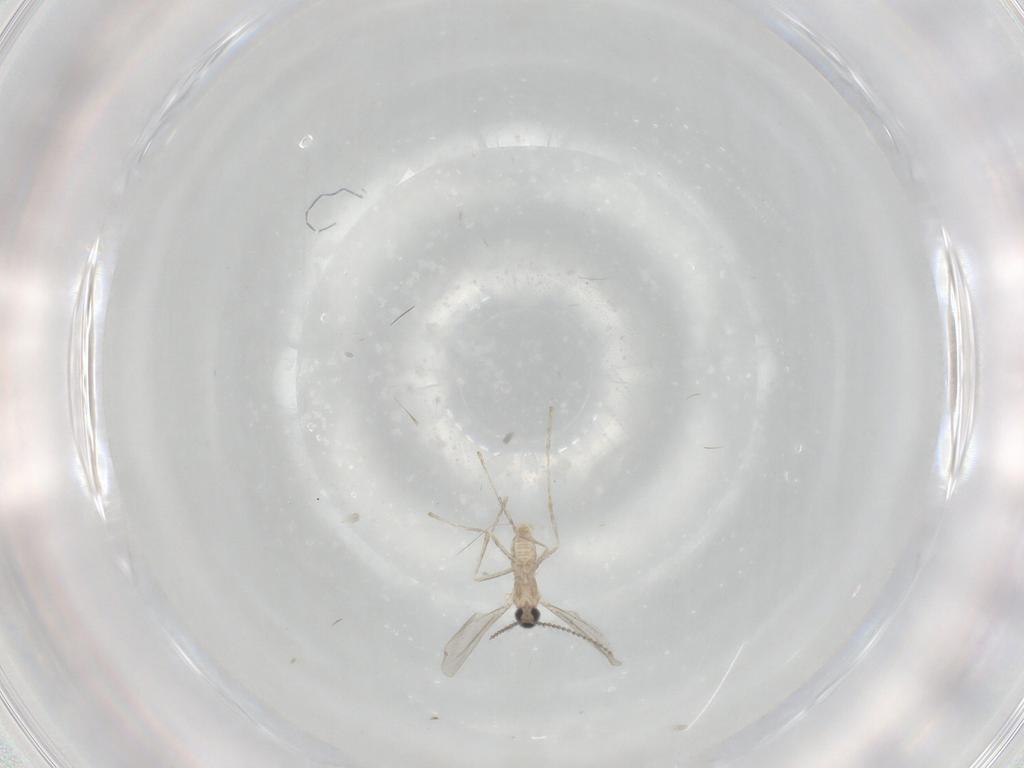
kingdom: Animalia
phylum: Arthropoda
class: Insecta
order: Diptera
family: Cecidomyiidae
